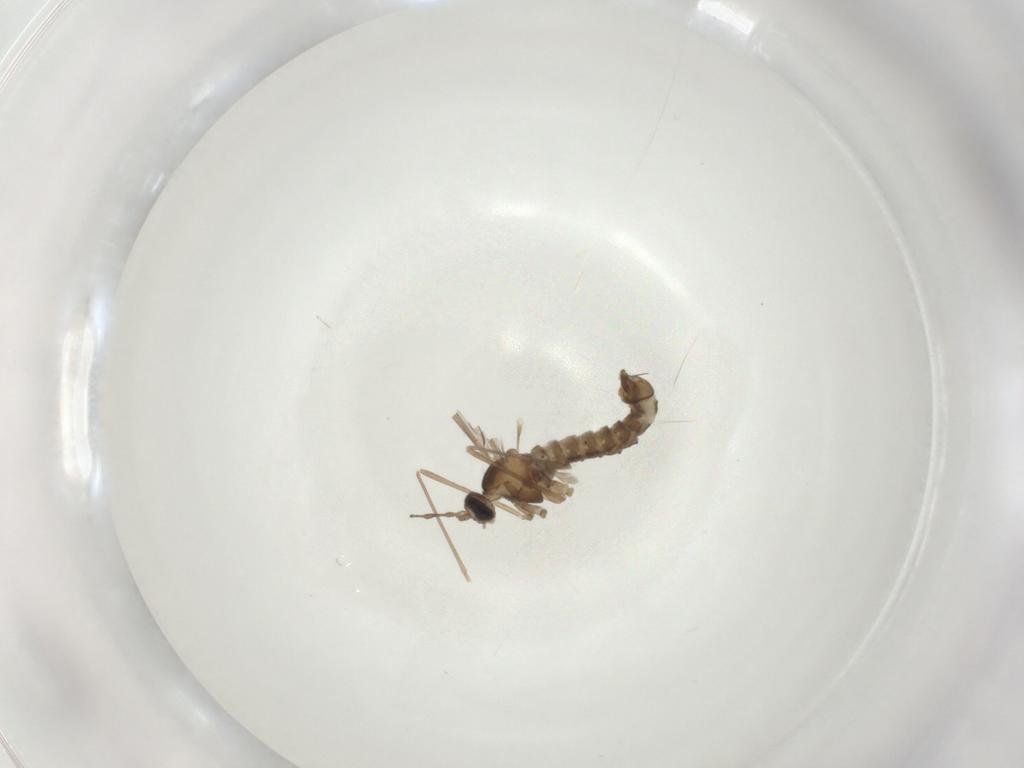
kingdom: Animalia
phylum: Arthropoda
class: Insecta
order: Diptera
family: Cecidomyiidae
